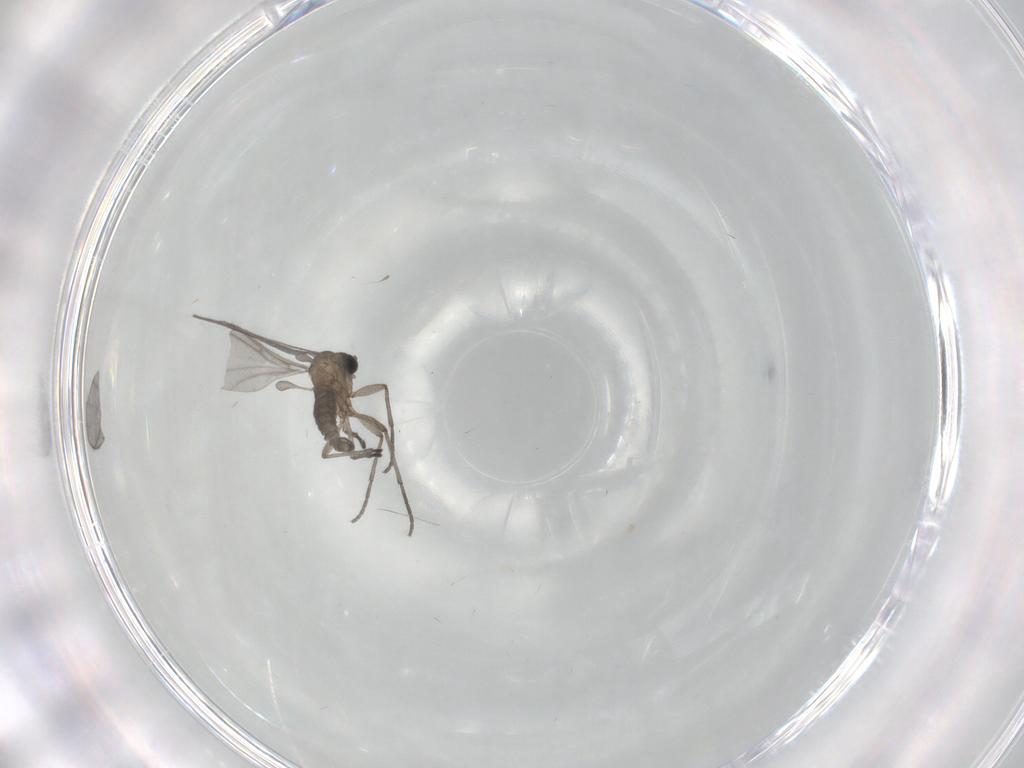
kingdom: Animalia
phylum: Arthropoda
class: Insecta
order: Diptera
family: Sciaridae
